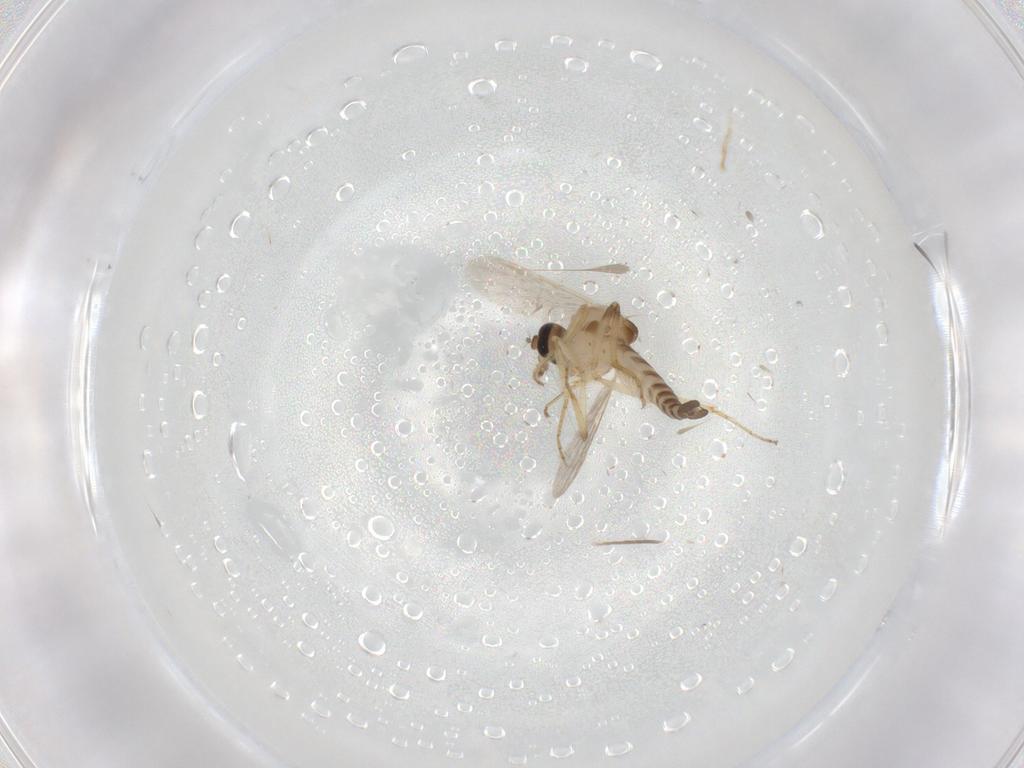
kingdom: Animalia
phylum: Arthropoda
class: Insecta
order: Diptera
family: Ceratopogonidae
